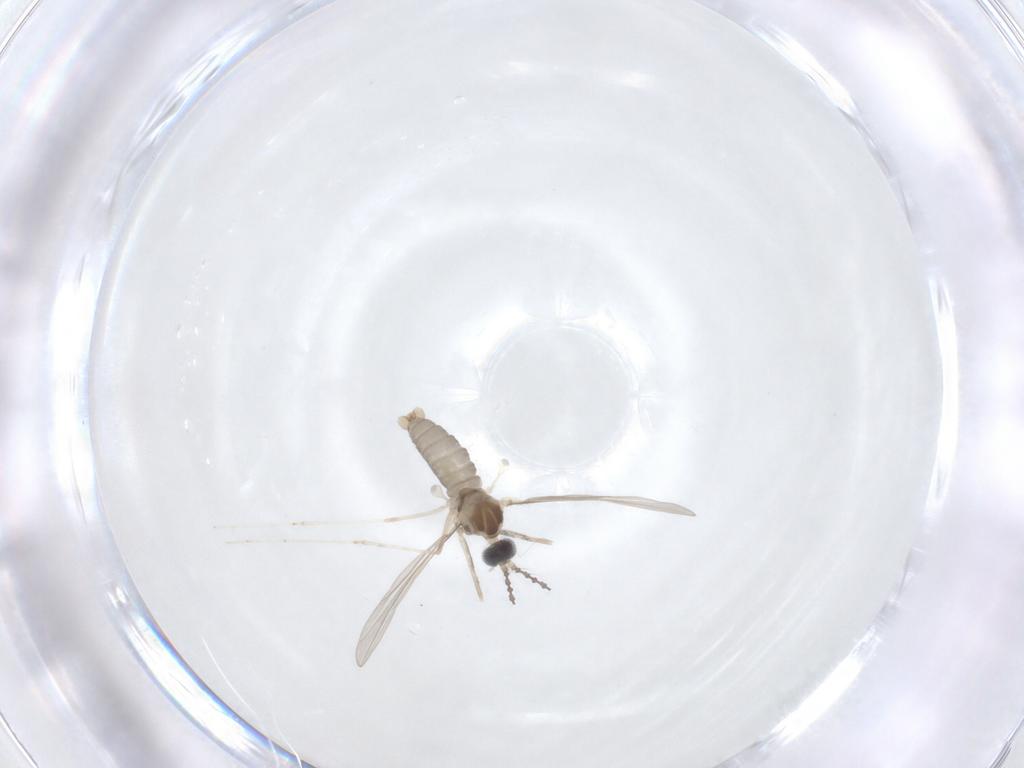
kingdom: Animalia
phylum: Arthropoda
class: Insecta
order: Diptera
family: Cecidomyiidae
